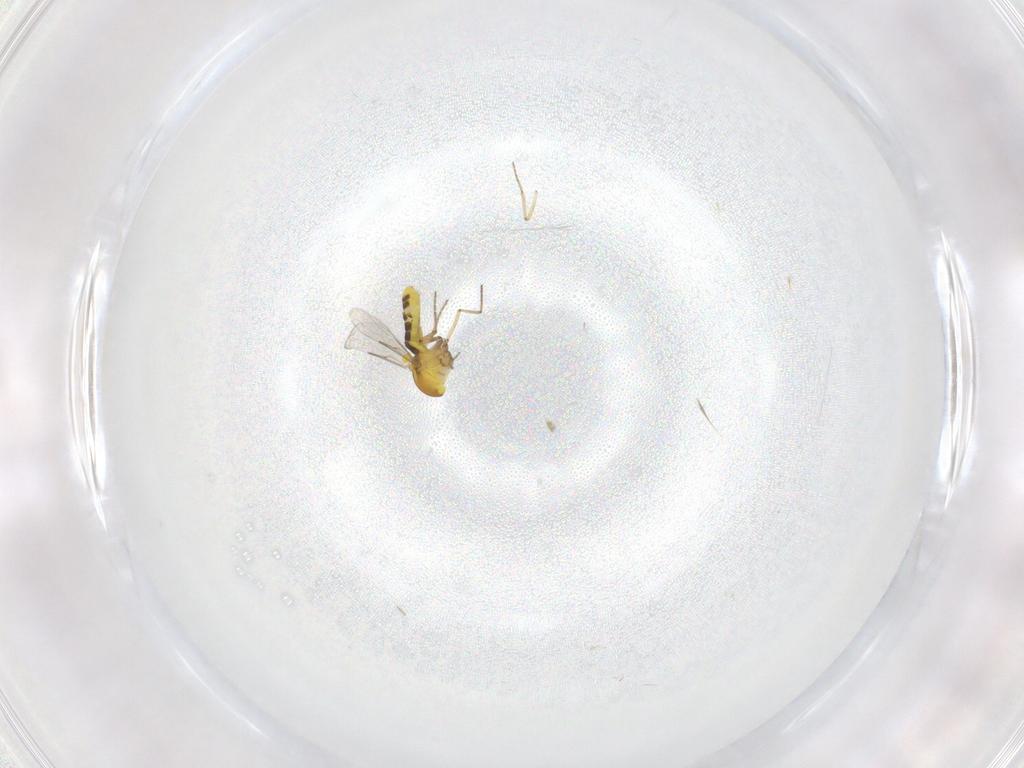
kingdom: Animalia
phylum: Arthropoda
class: Insecta
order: Diptera
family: Ceratopogonidae
